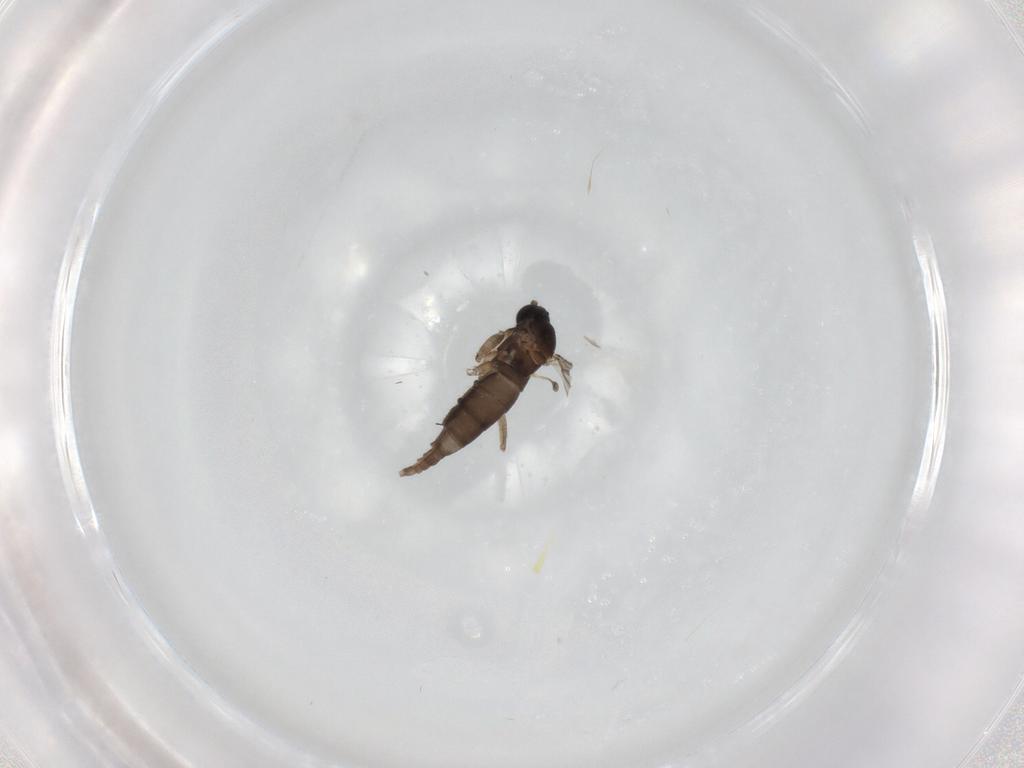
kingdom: Animalia
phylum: Arthropoda
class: Insecta
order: Diptera
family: Sciaridae
